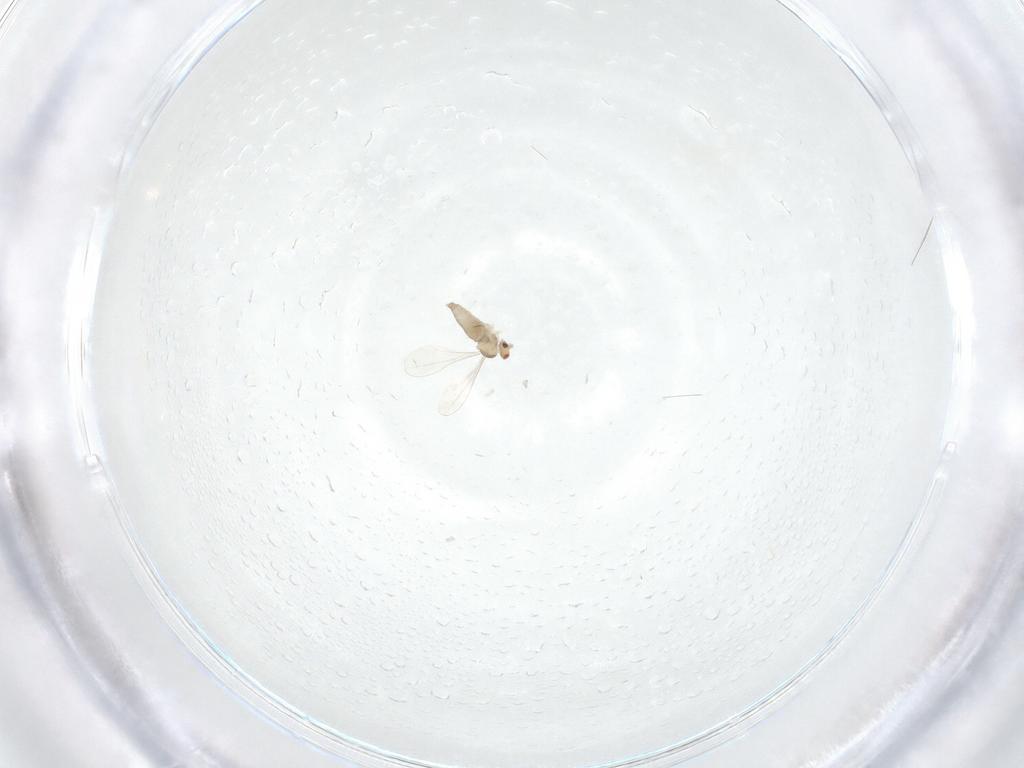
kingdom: Animalia
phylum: Arthropoda
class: Insecta
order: Diptera
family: Cecidomyiidae
